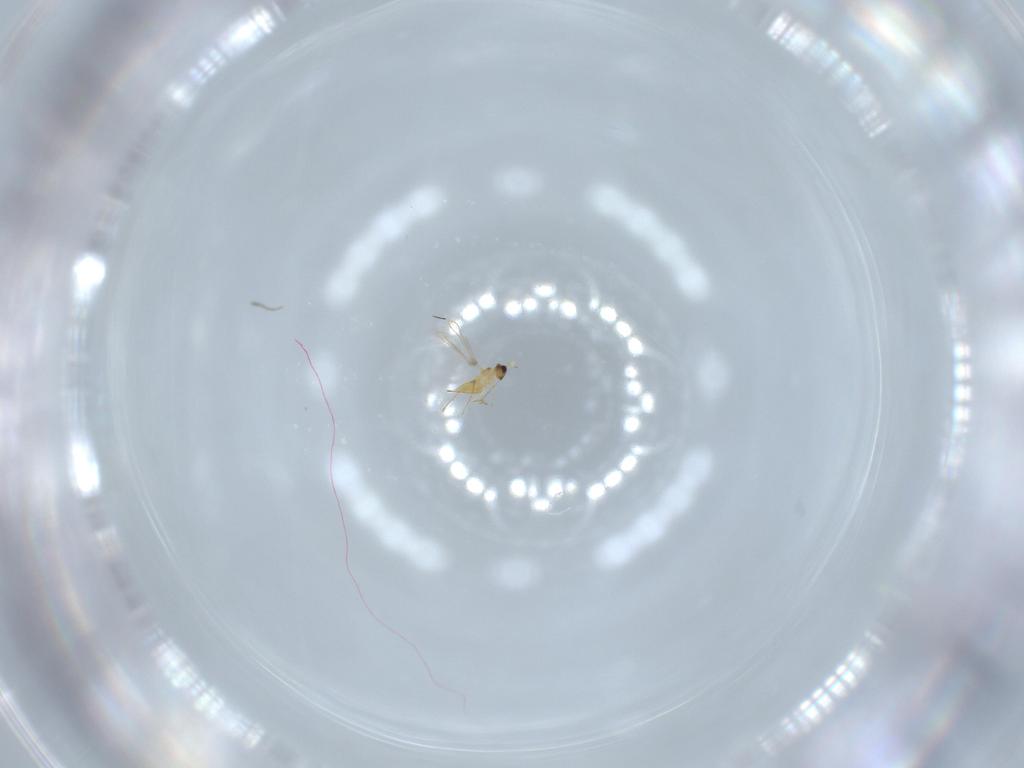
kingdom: Animalia
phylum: Arthropoda
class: Insecta
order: Hymenoptera
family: Mymaridae
